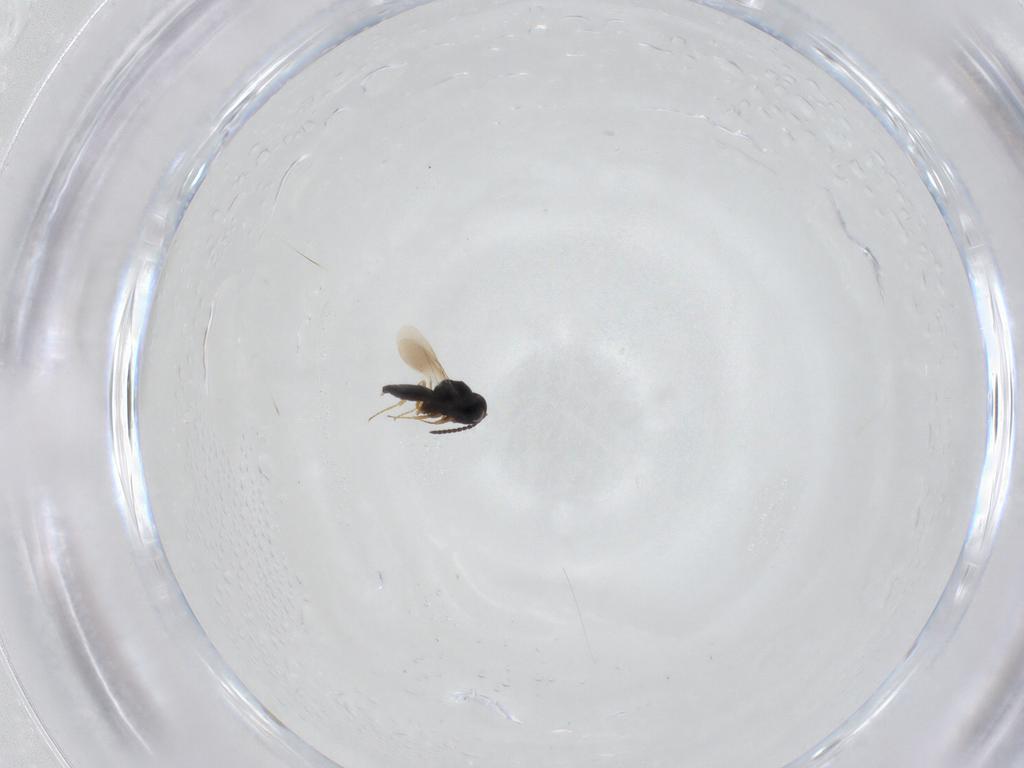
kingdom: Animalia
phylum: Arthropoda
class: Insecta
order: Hymenoptera
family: Scelionidae
